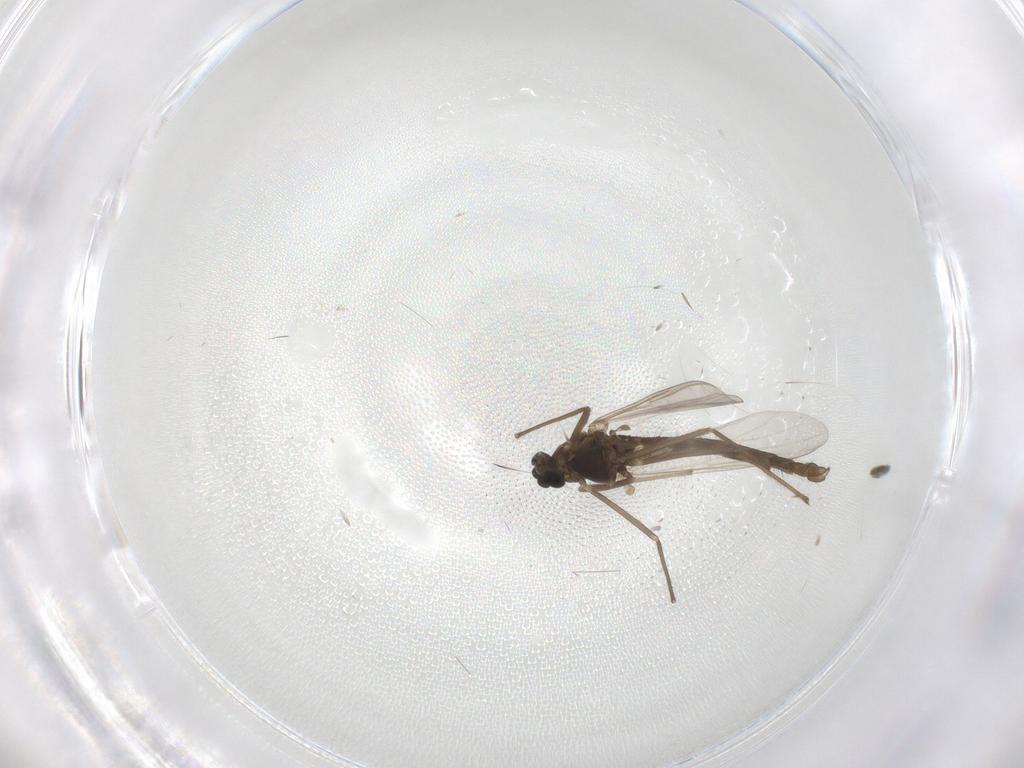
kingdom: Animalia
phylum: Arthropoda
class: Insecta
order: Diptera
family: Chironomidae
